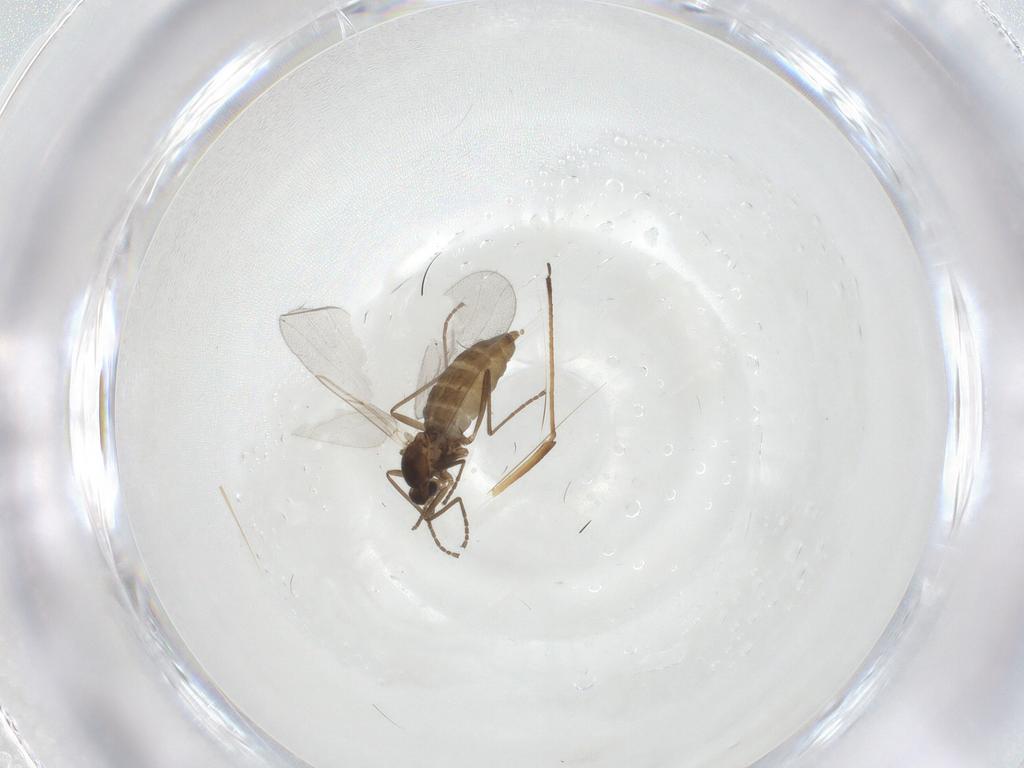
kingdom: Animalia
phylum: Arthropoda
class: Insecta
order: Diptera
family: Cecidomyiidae
